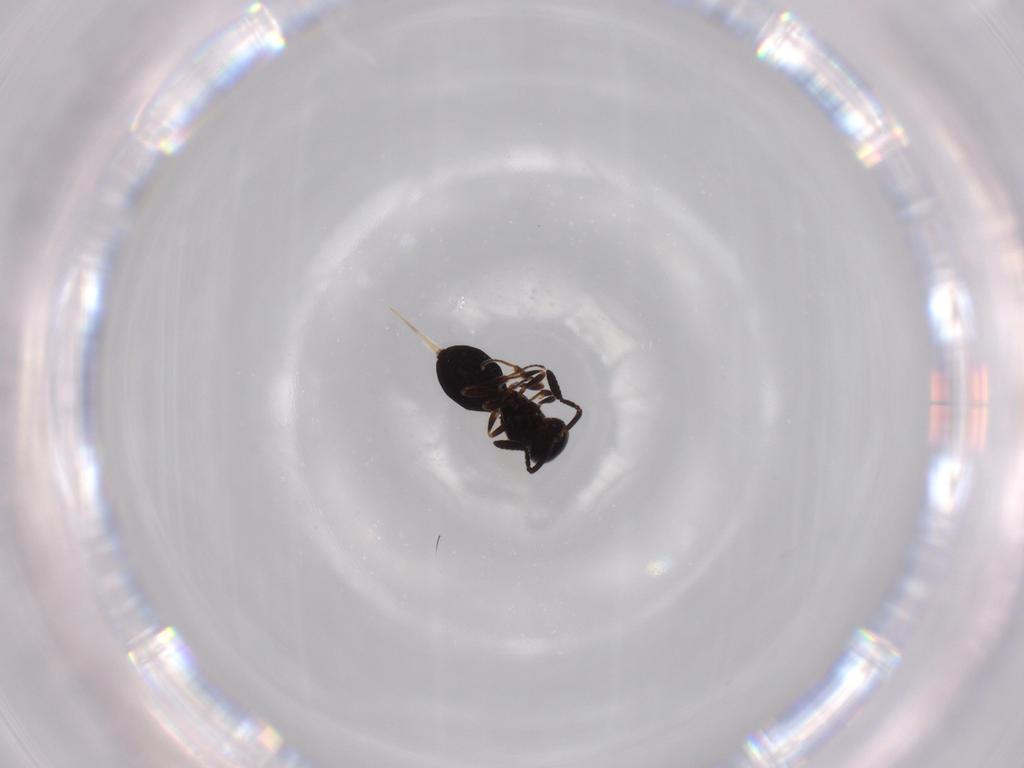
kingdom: Animalia
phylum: Arthropoda
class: Insecta
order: Hymenoptera
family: Scelionidae
